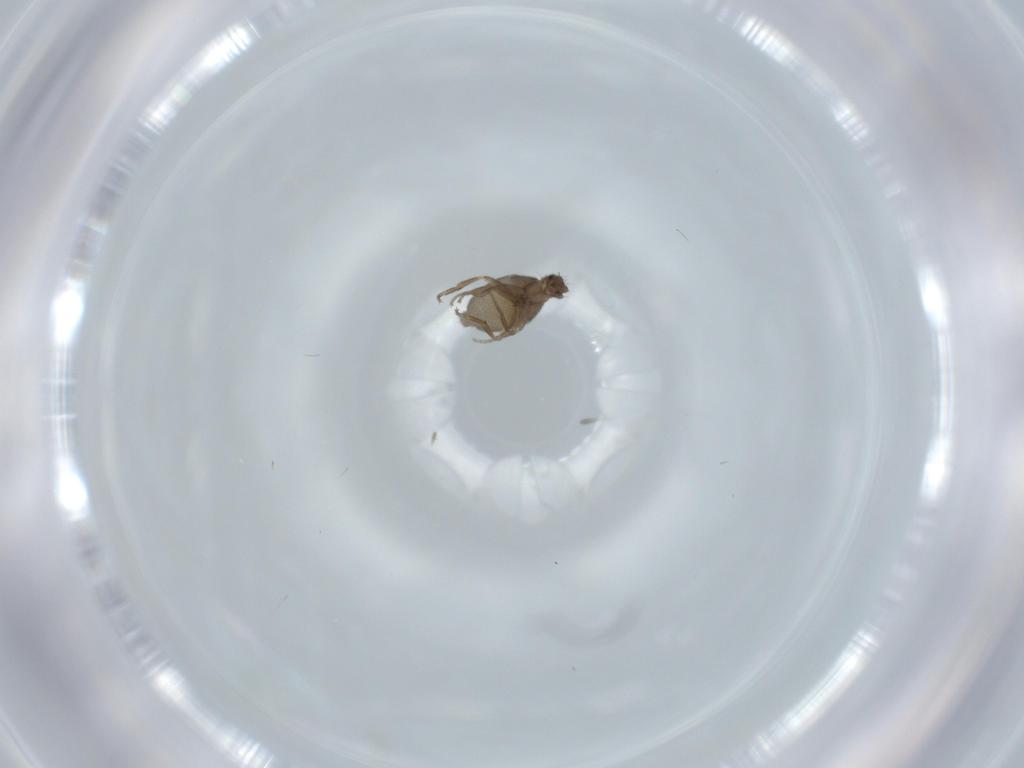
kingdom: Animalia
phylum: Arthropoda
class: Insecta
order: Diptera
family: Phoridae
